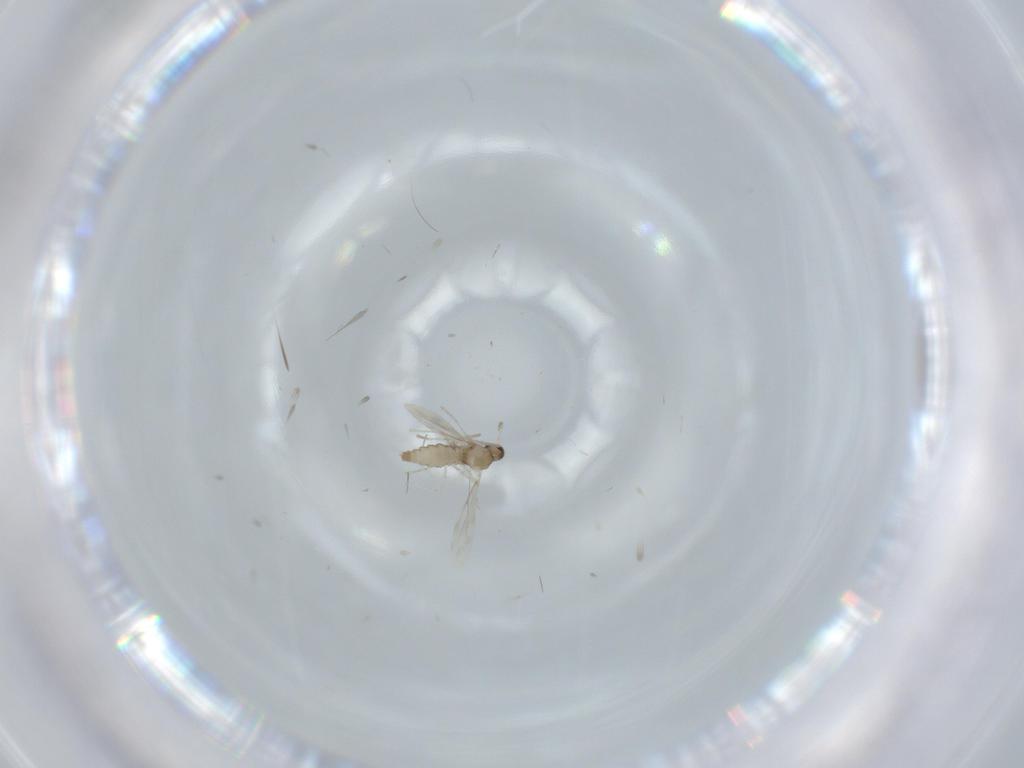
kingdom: Animalia
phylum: Arthropoda
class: Insecta
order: Diptera
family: Cecidomyiidae
